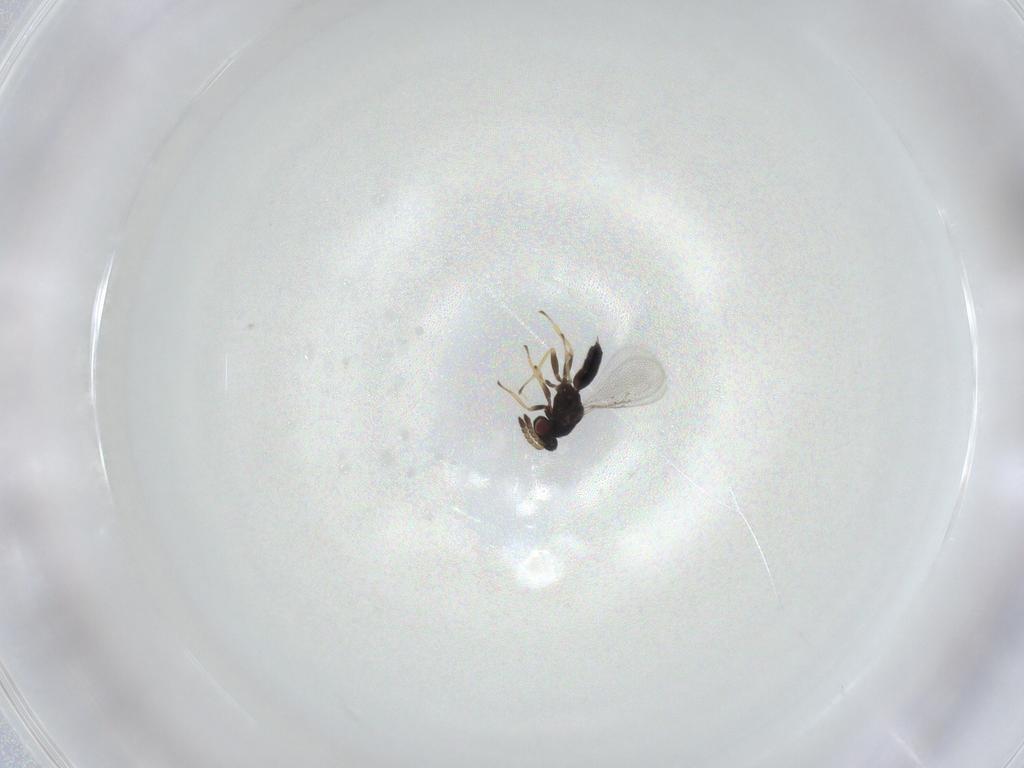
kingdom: Animalia
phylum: Arthropoda
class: Insecta
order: Hymenoptera
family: Eulophidae
